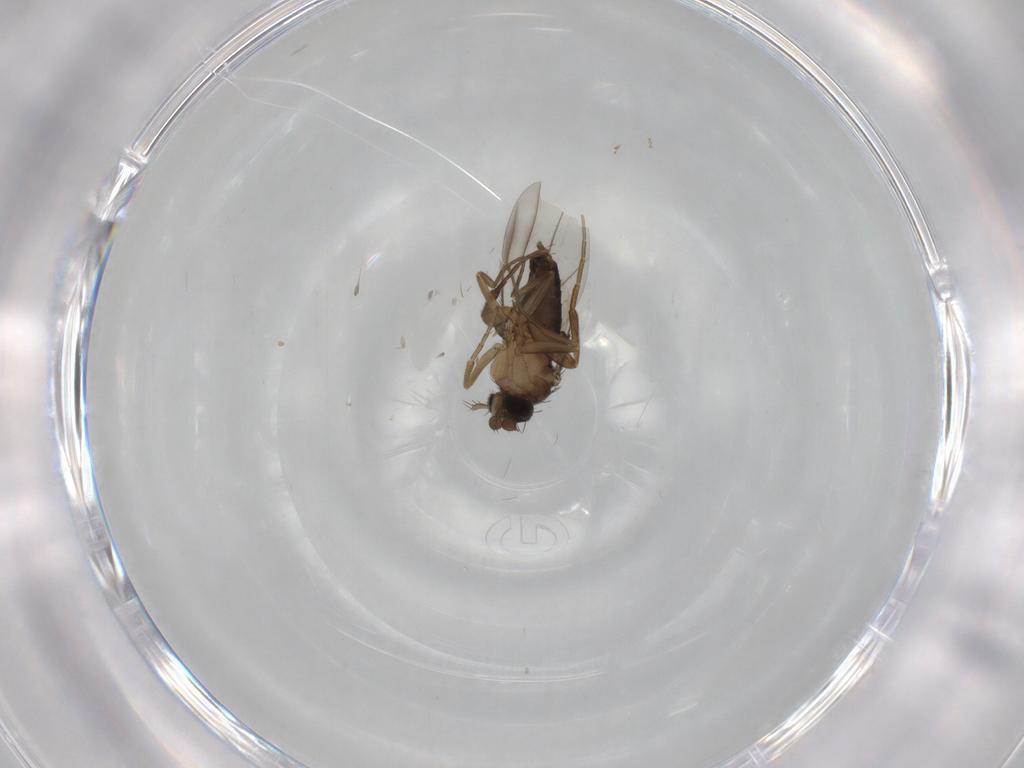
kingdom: Animalia
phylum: Arthropoda
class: Insecta
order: Diptera
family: Phoridae
